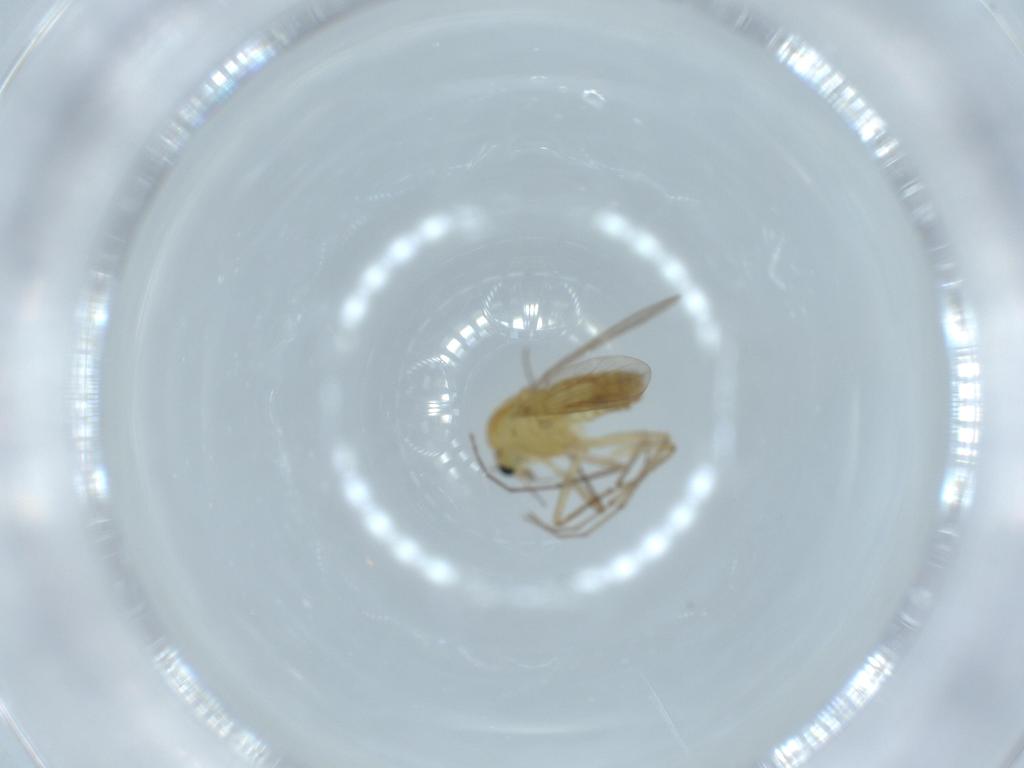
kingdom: Animalia
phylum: Arthropoda
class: Insecta
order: Diptera
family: Chironomidae
